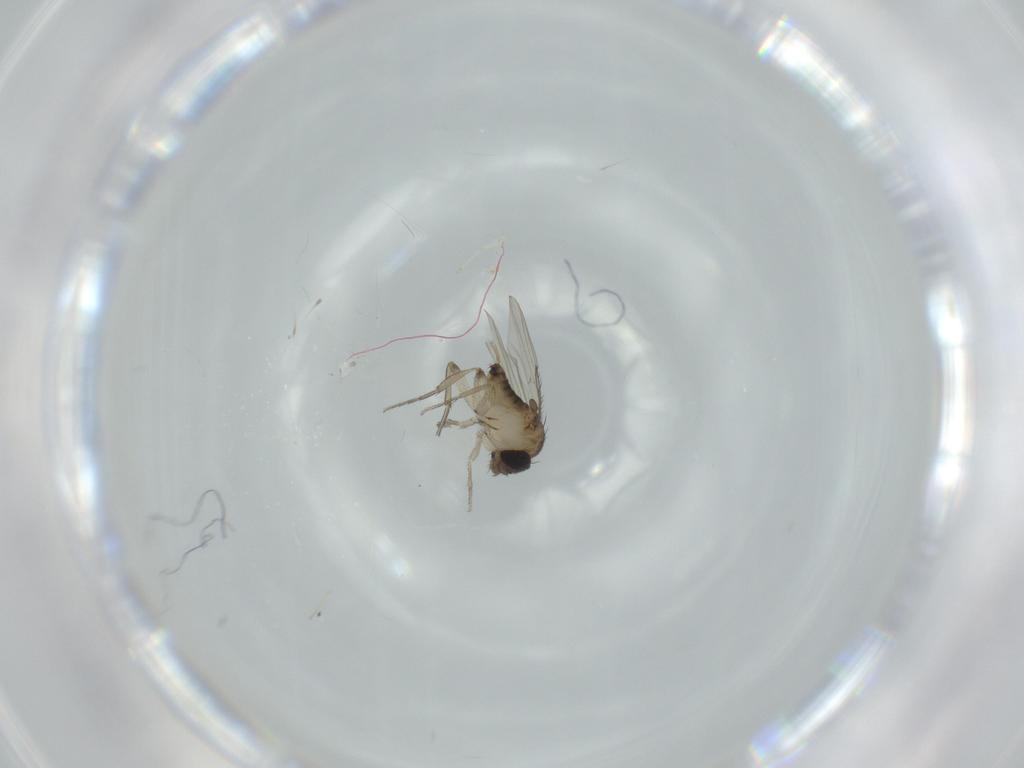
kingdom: Animalia
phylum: Arthropoda
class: Insecta
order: Diptera
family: Phoridae
